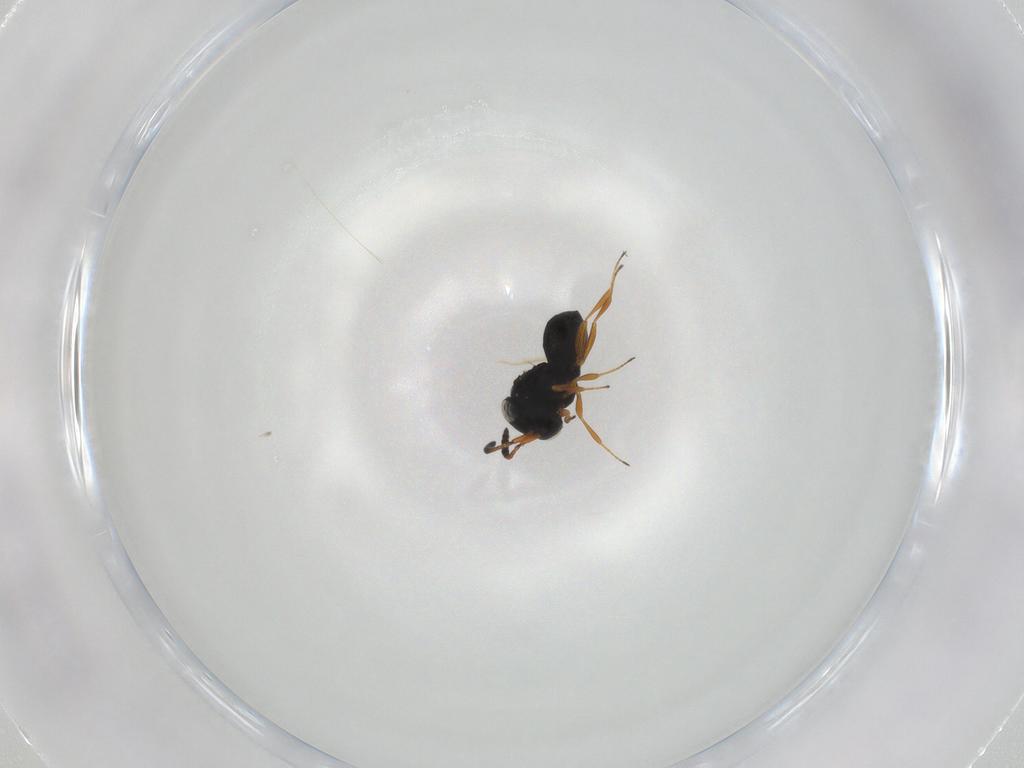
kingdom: Animalia
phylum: Arthropoda
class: Insecta
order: Hymenoptera
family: Scelionidae
